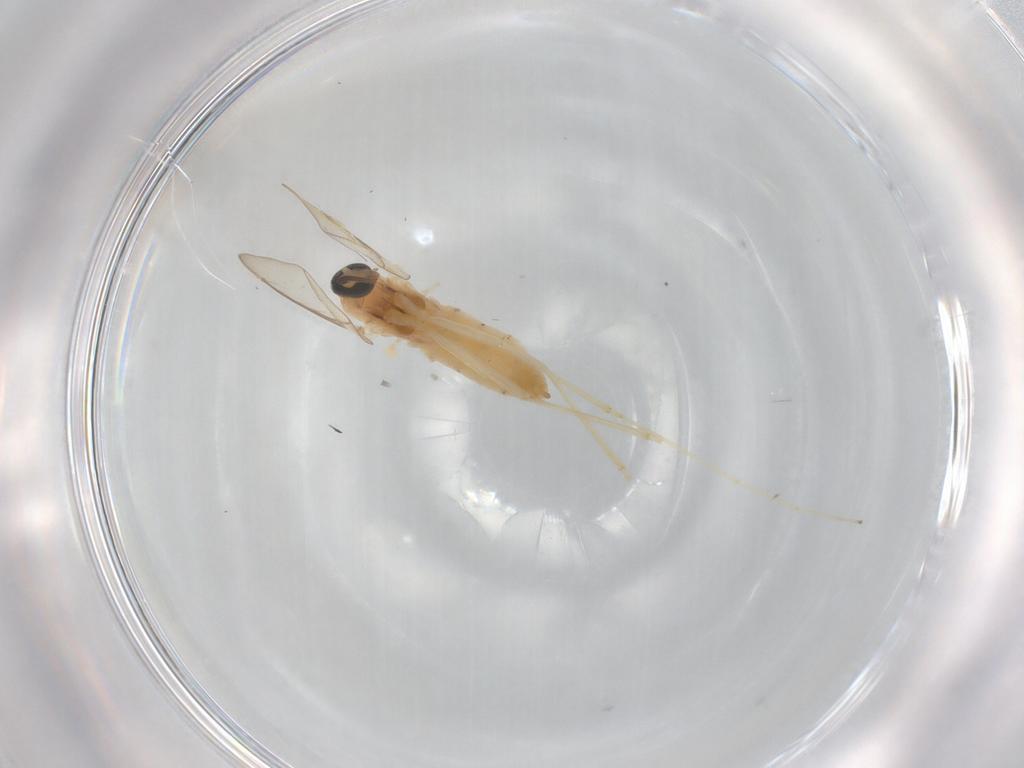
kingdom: Animalia
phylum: Arthropoda
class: Insecta
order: Diptera
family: Cecidomyiidae
